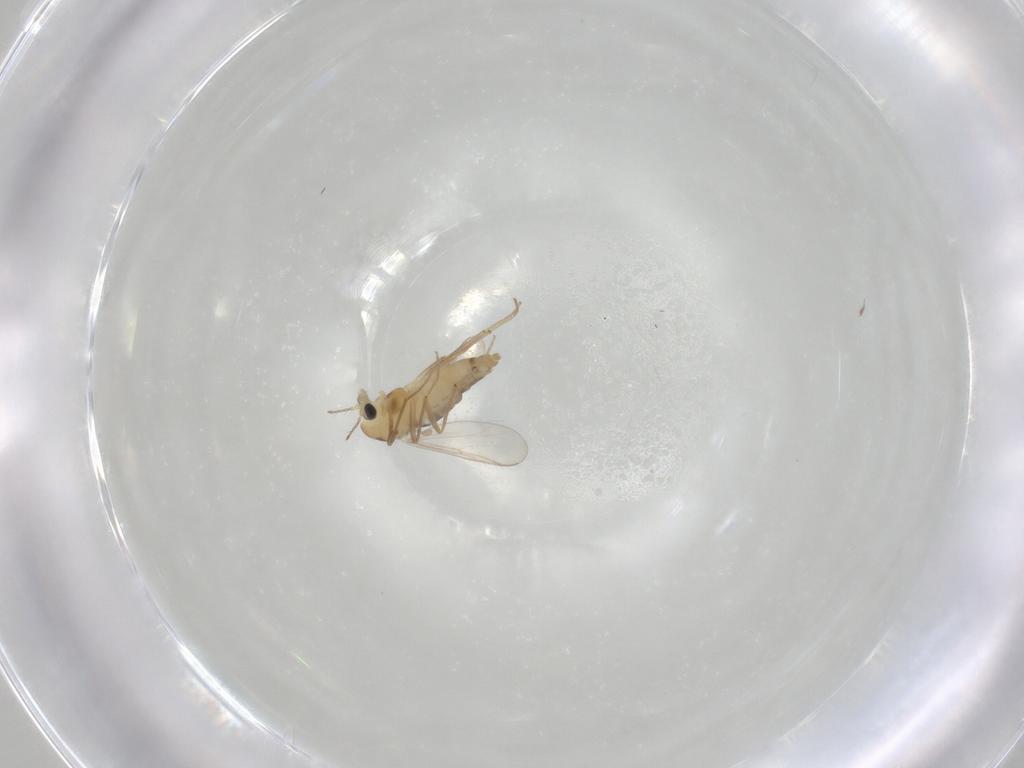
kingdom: Animalia
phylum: Arthropoda
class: Insecta
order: Diptera
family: Chironomidae
